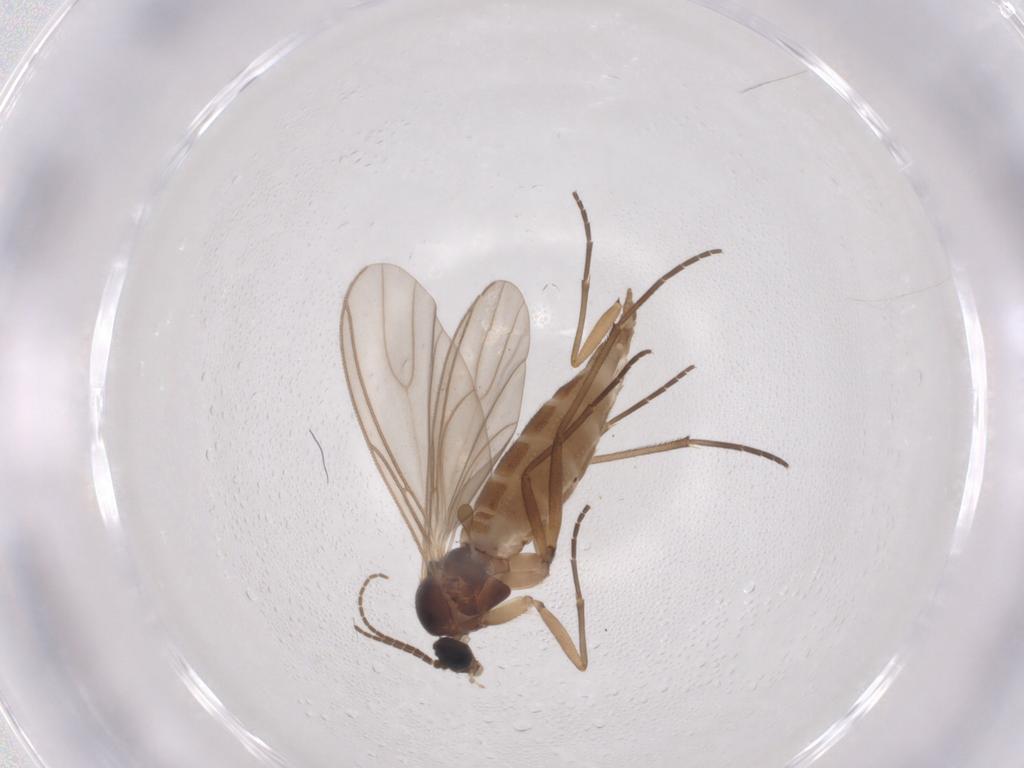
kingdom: Animalia
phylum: Arthropoda
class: Insecta
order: Diptera
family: Sciaridae
